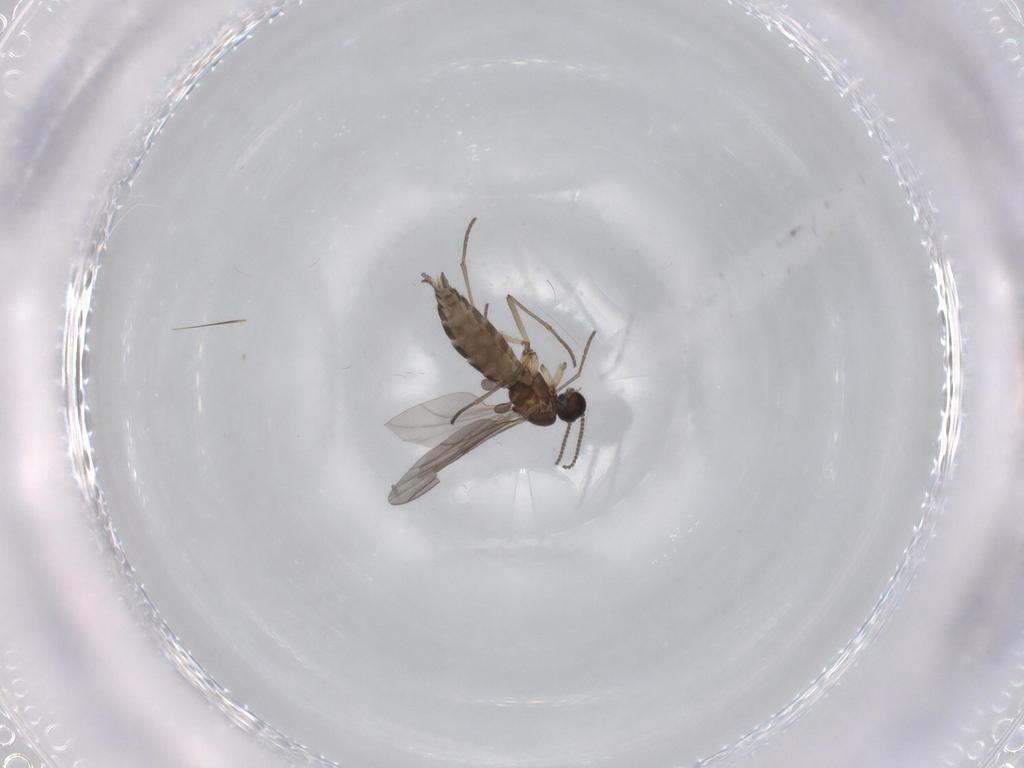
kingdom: Animalia
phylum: Arthropoda
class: Insecta
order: Diptera
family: Sciaridae
